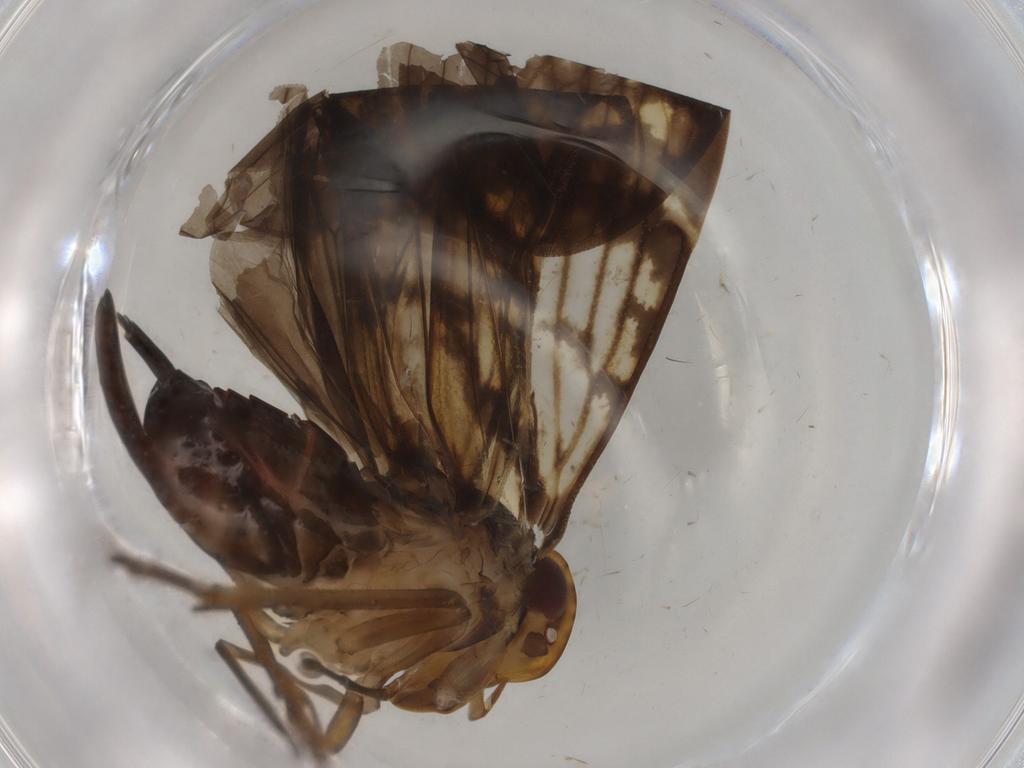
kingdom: Animalia
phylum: Arthropoda
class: Insecta
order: Hemiptera
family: Cixiidae
